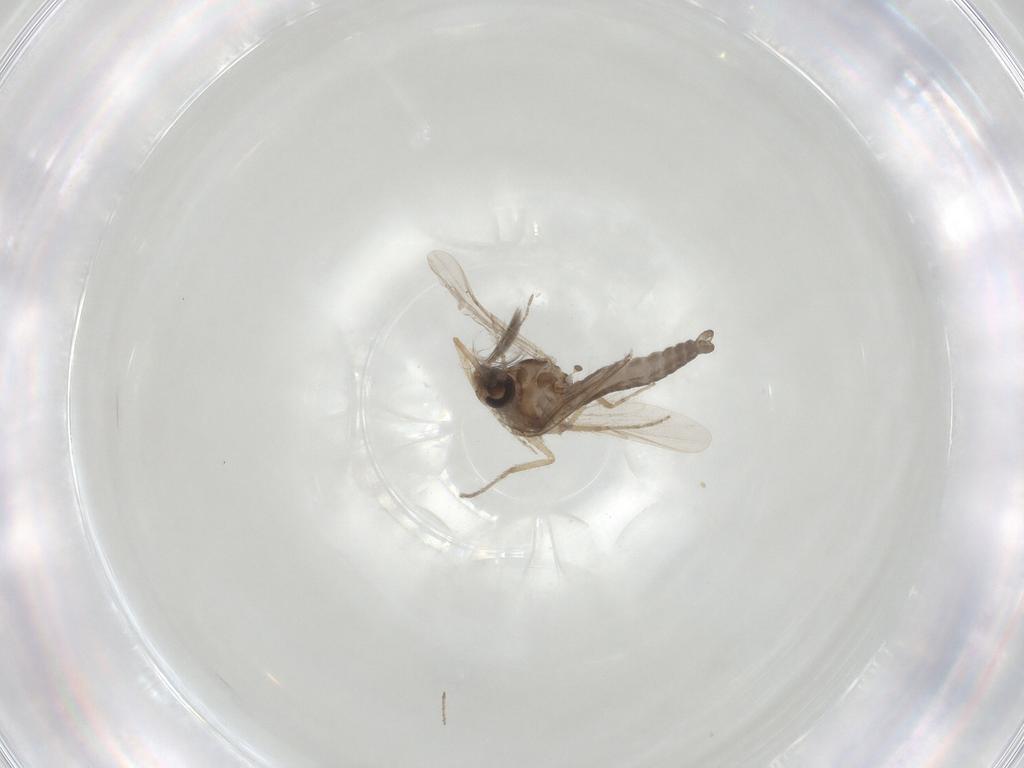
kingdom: Animalia
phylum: Arthropoda
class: Insecta
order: Diptera
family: Ceratopogonidae
